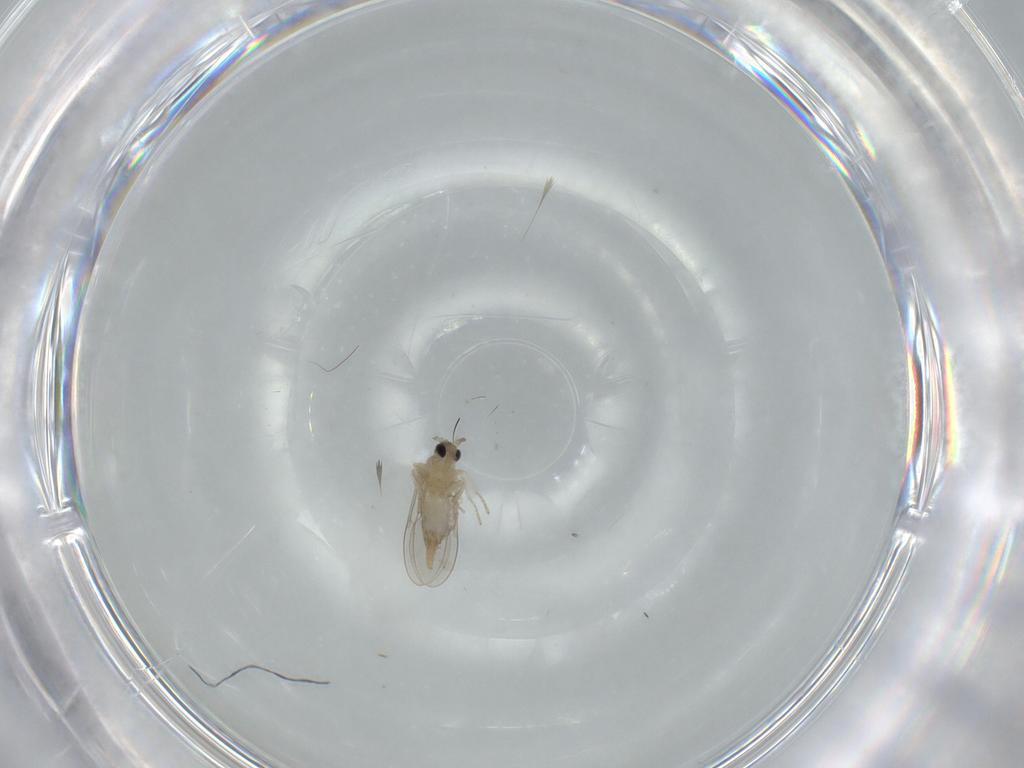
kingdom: Animalia
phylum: Arthropoda
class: Insecta
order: Diptera
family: Cecidomyiidae
